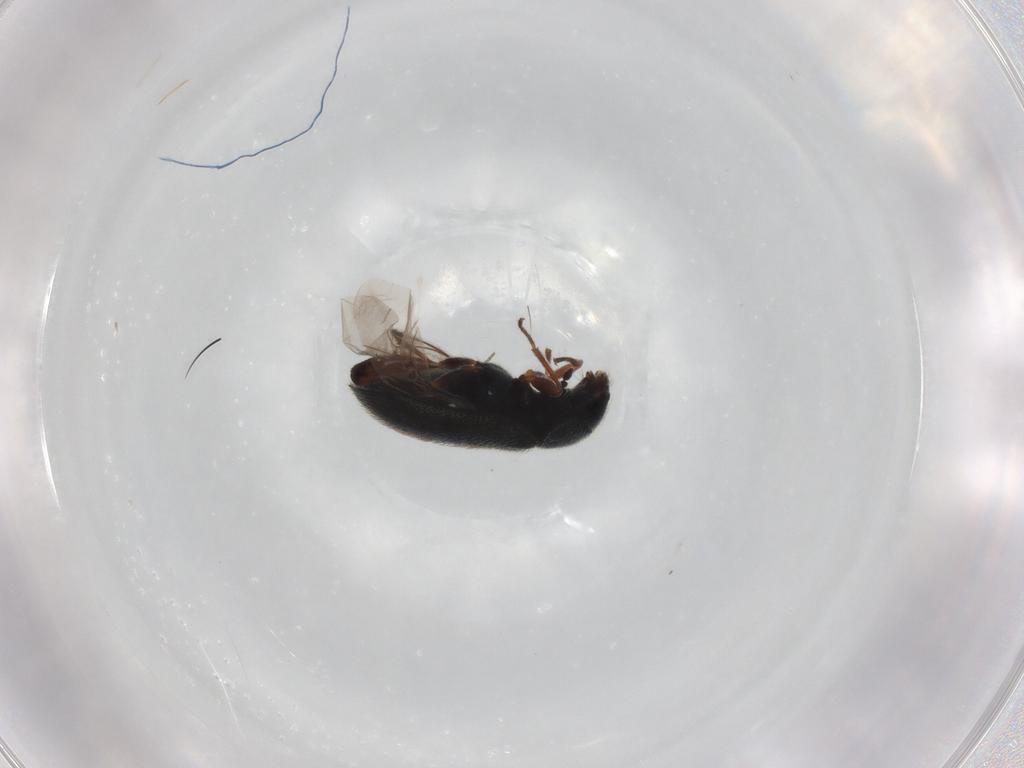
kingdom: Animalia
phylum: Arthropoda
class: Insecta
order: Coleoptera
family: Melyridae
